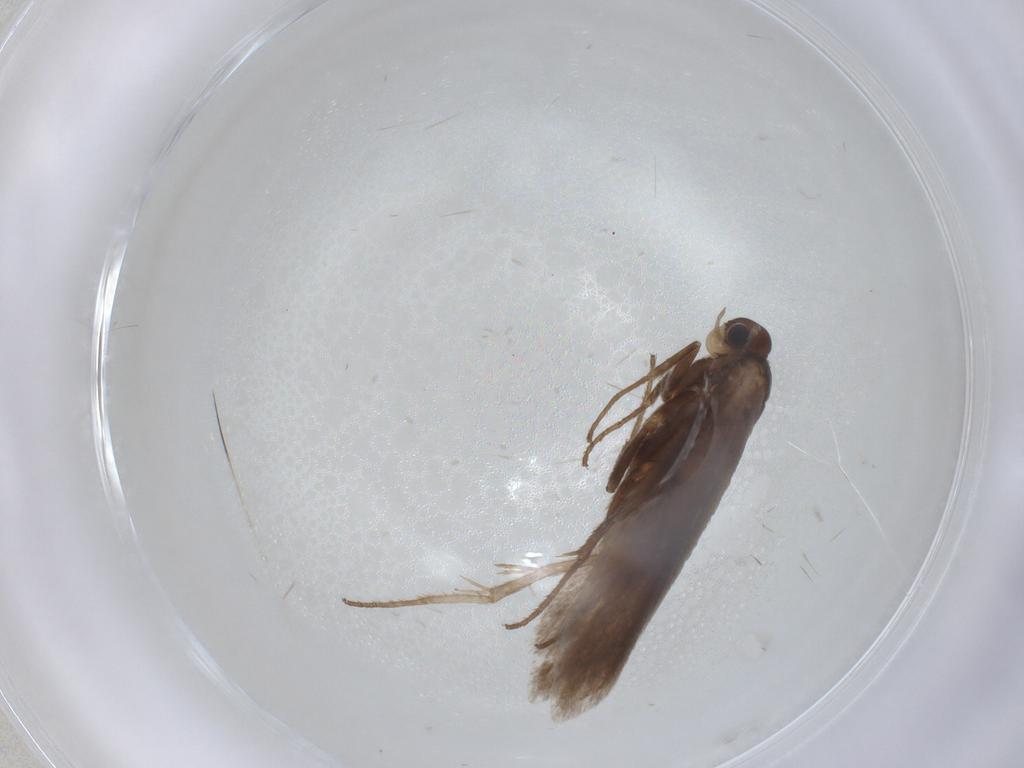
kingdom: Animalia
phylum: Arthropoda
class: Insecta
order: Lepidoptera
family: Limacodidae
